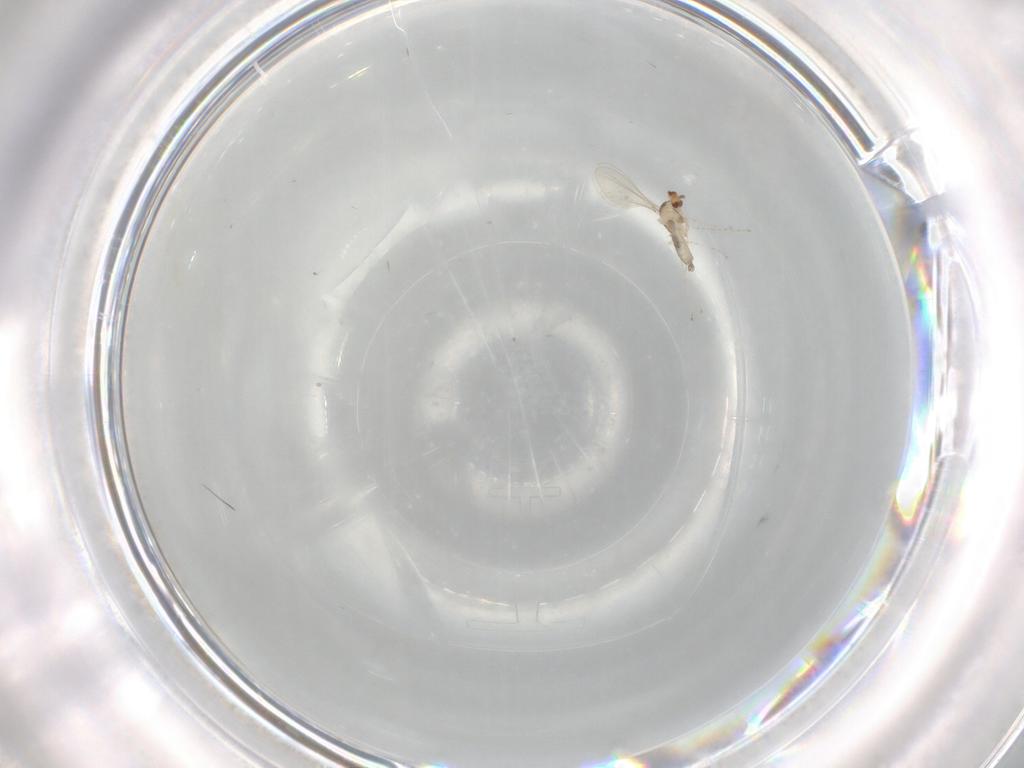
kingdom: Animalia
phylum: Arthropoda
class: Insecta
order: Diptera
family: Cecidomyiidae
